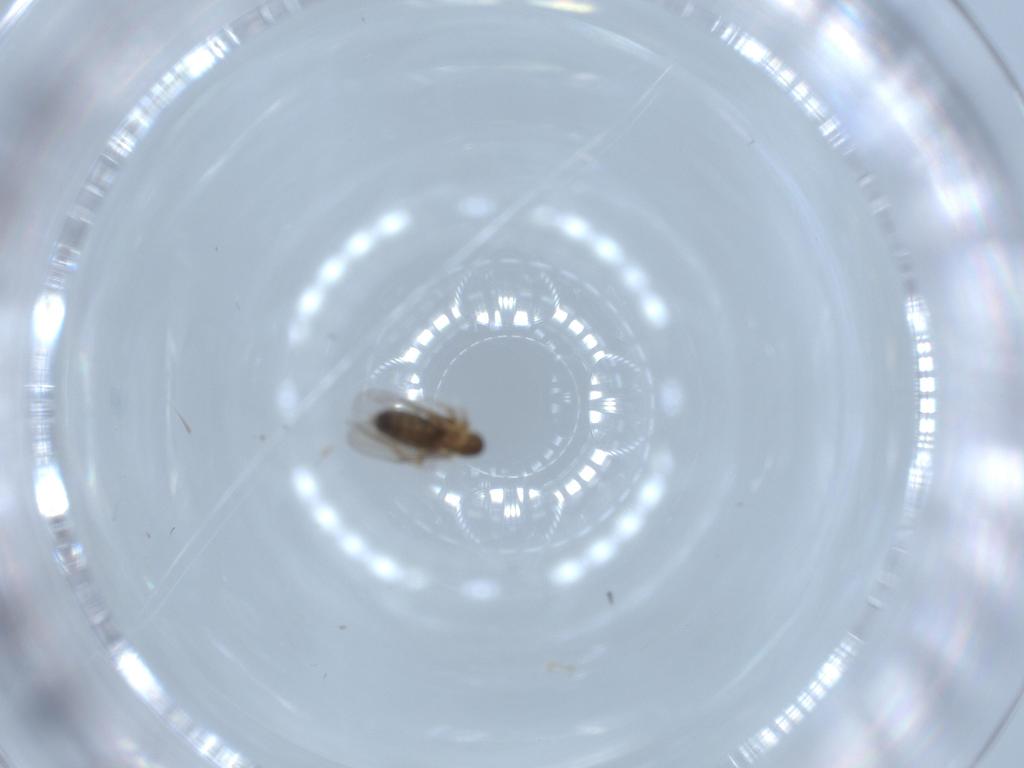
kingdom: Animalia
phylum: Arthropoda
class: Insecta
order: Diptera
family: Phoridae
